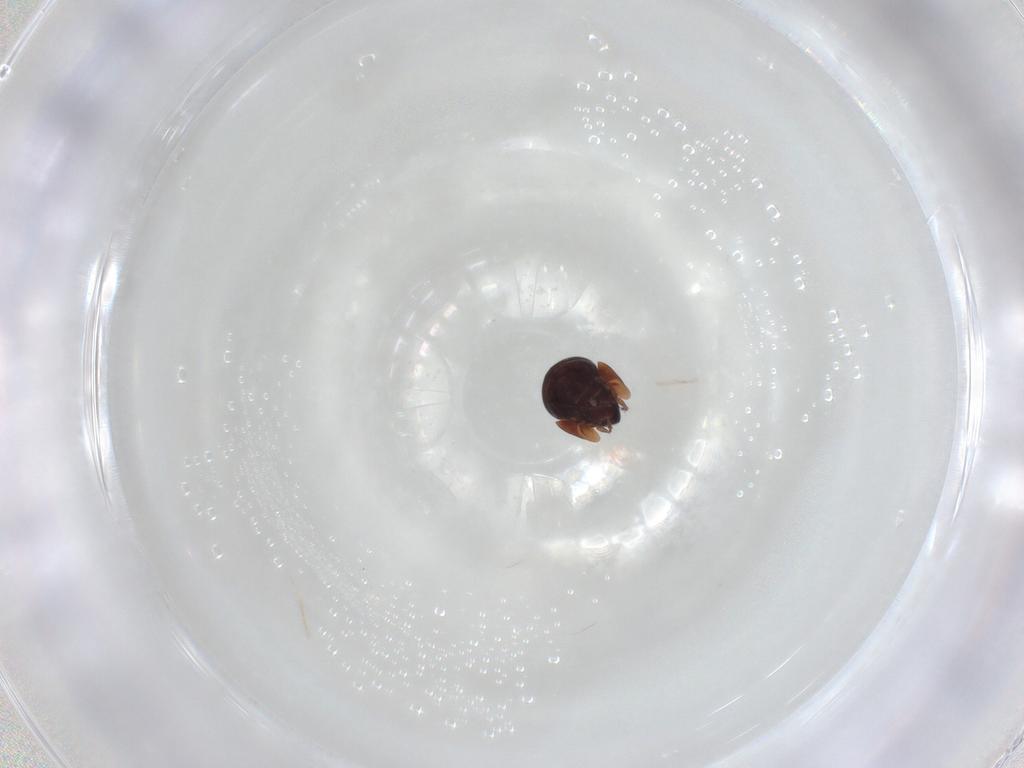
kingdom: Animalia
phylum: Arthropoda
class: Arachnida
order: Sarcoptiformes
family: Galumnidae
